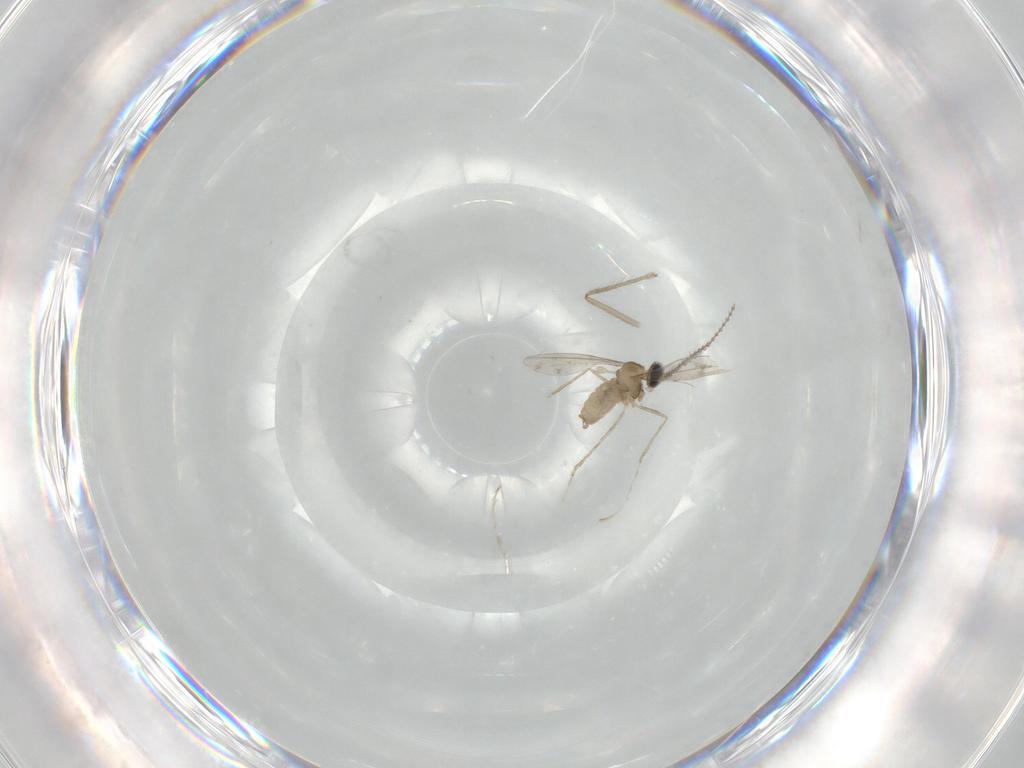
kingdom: Animalia
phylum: Arthropoda
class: Insecta
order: Diptera
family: Chironomidae
